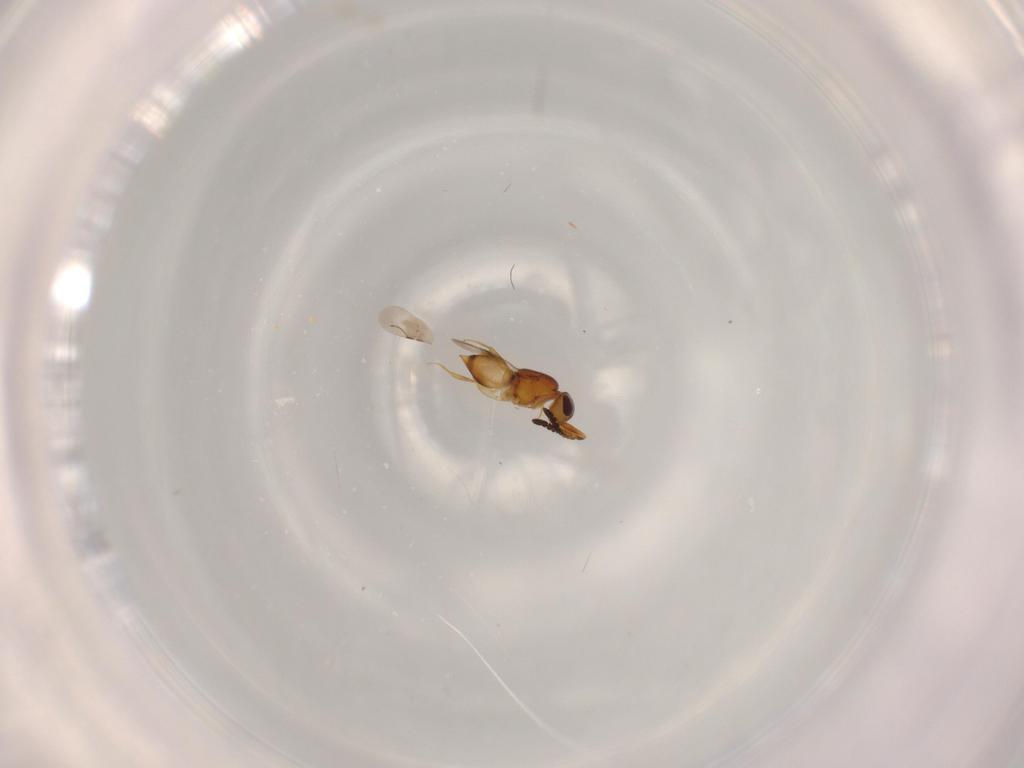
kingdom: Animalia
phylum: Arthropoda
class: Insecta
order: Hymenoptera
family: Ceraphronidae
